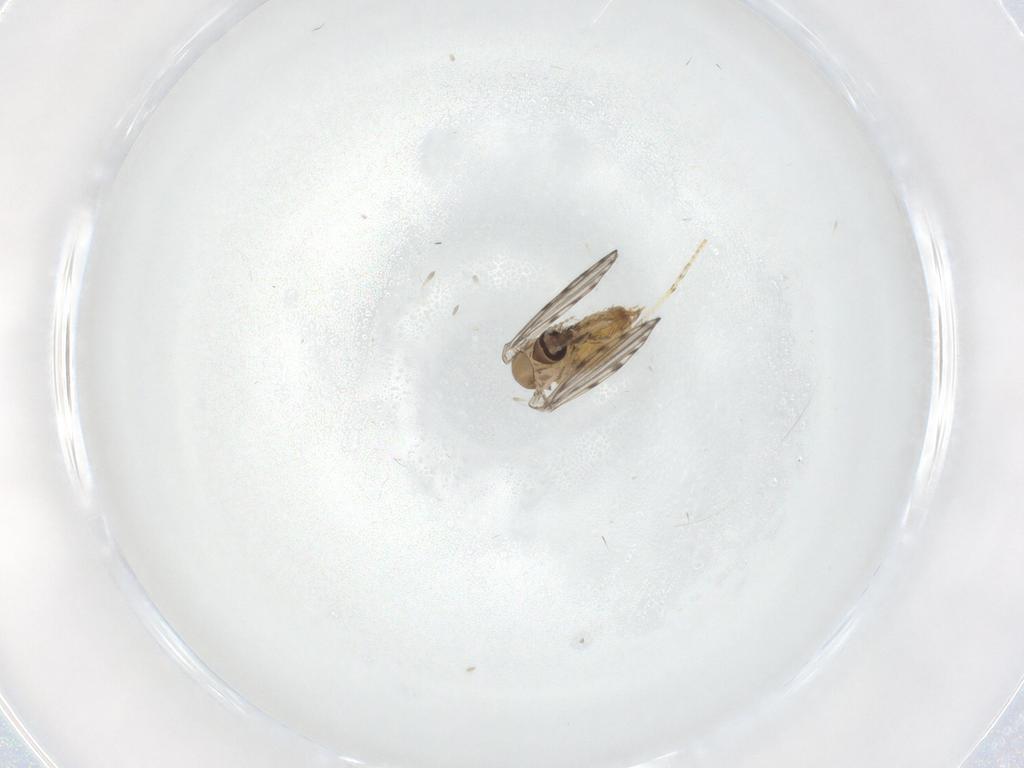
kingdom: Animalia
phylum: Arthropoda
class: Insecta
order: Diptera
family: Psychodidae
